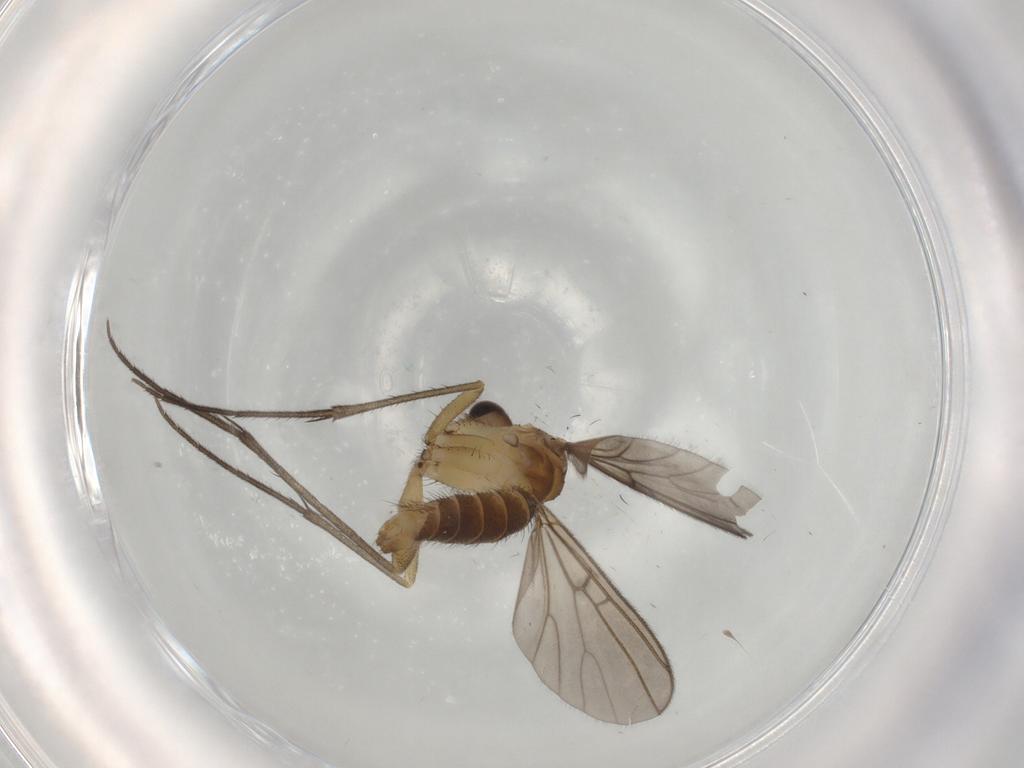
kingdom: Animalia
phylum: Arthropoda
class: Insecta
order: Diptera
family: Mycetophilidae
